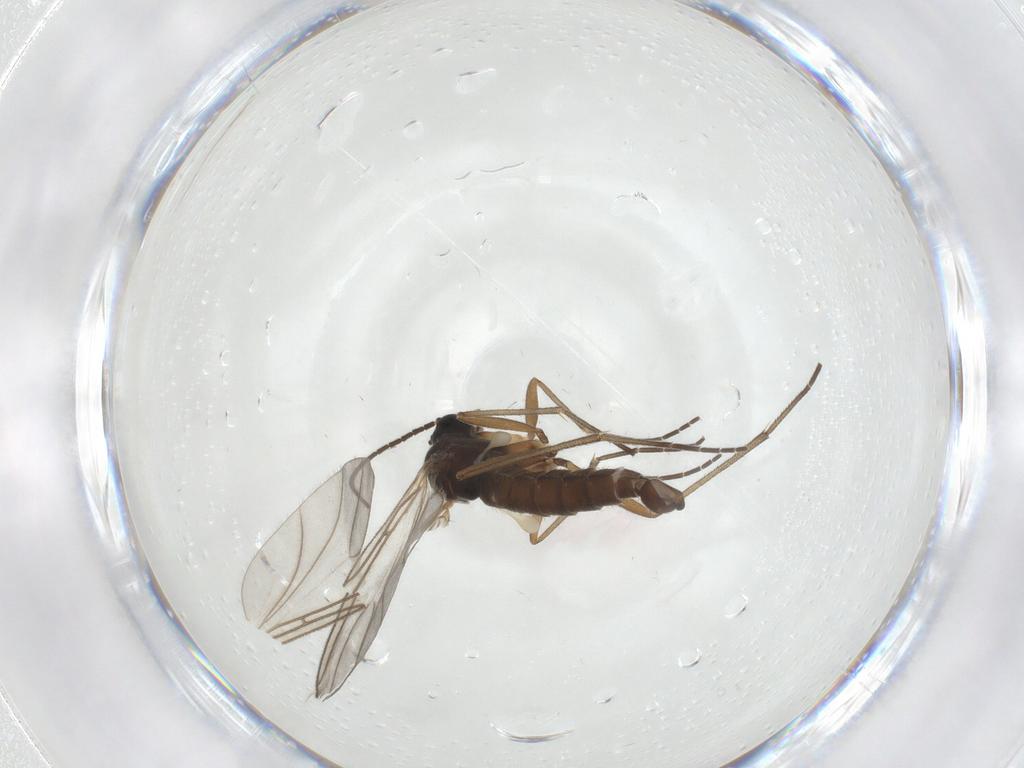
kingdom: Animalia
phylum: Arthropoda
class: Insecta
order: Diptera
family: Sciaridae
